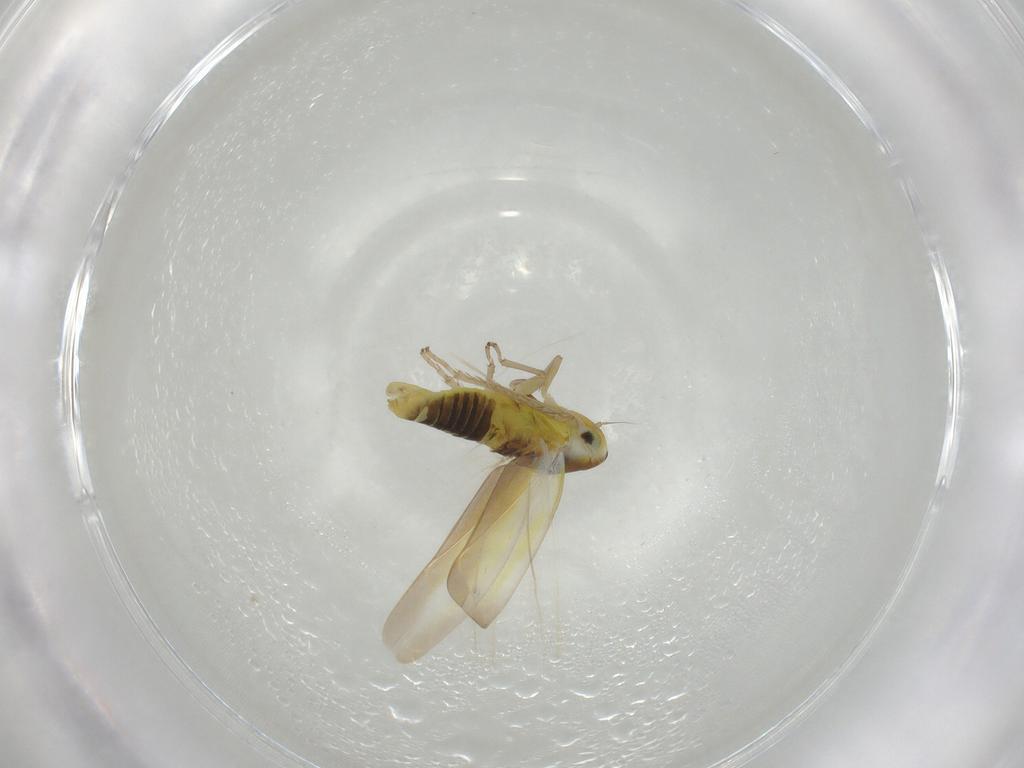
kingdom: Animalia
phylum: Arthropoda
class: Insecta
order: Hemiptera
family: Cicadellidae
